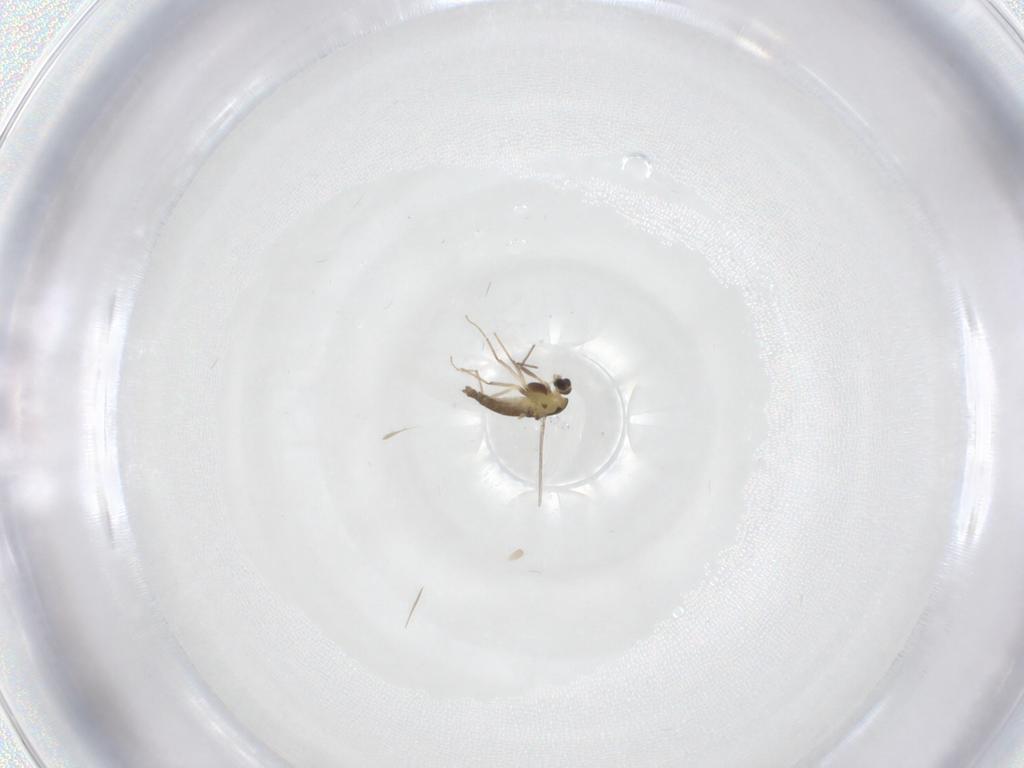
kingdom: Animalia
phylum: Arthropoda
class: Insecta
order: Diptera
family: Chironomidae
